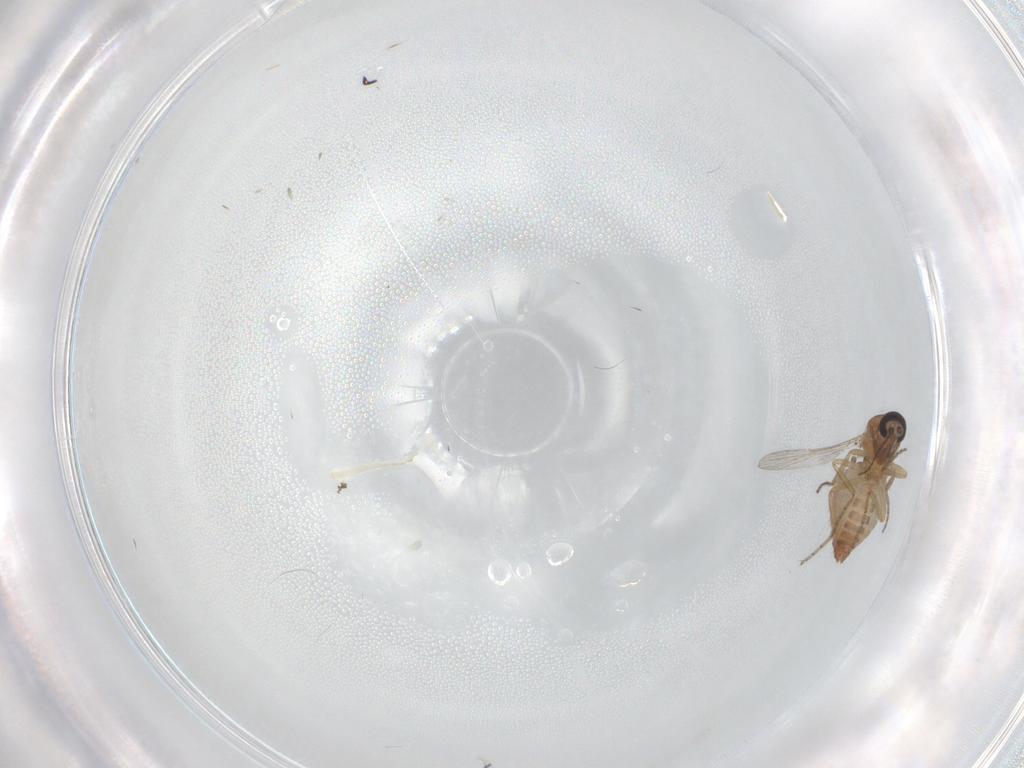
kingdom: Animalia
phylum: Arthropoda
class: Insecta
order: Diptera
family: Ceratopogonidae
